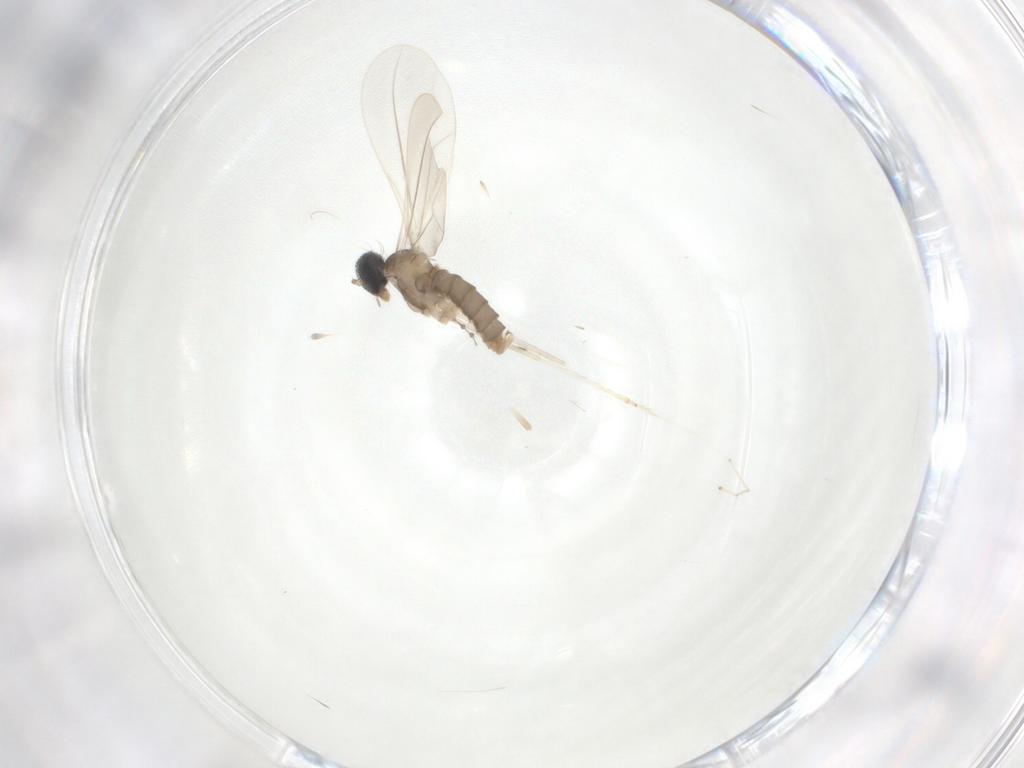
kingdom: Animalia
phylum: Arthropoda
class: Insecta
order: Diptera
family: Cecidomyiidae
